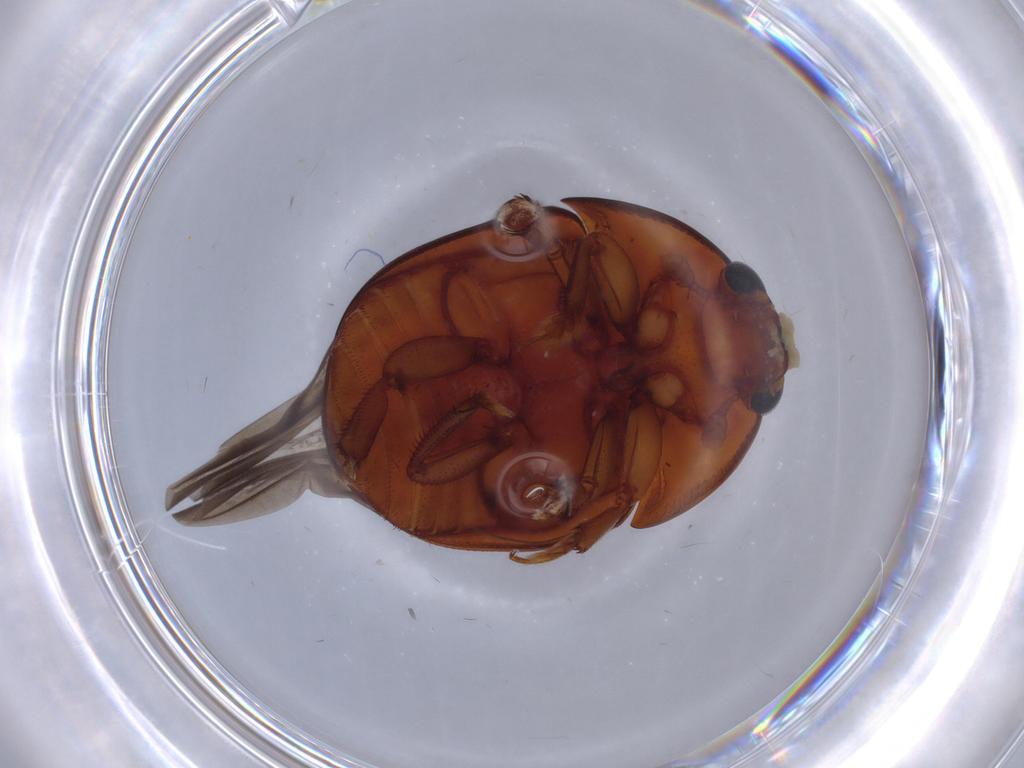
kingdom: Animalia
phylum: Arthropoda
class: Insecta
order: Coleoptera
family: Nitidulidae
